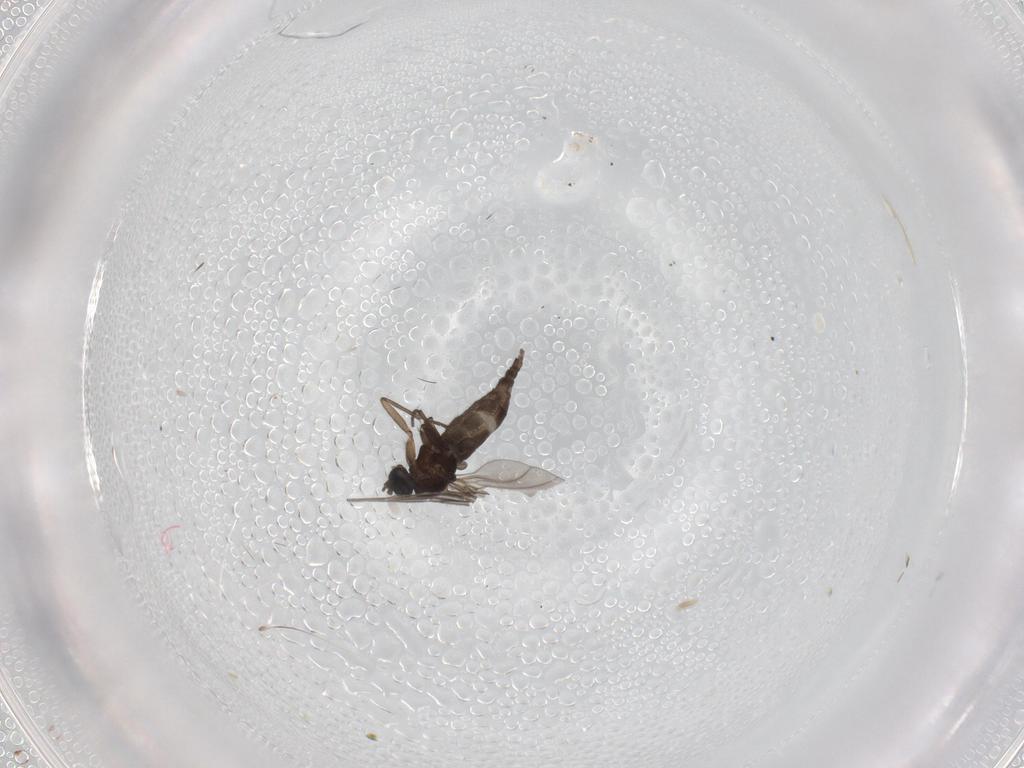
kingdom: Animalia
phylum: Arthropoda
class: Insecta
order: Diptera
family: Sciaridae
